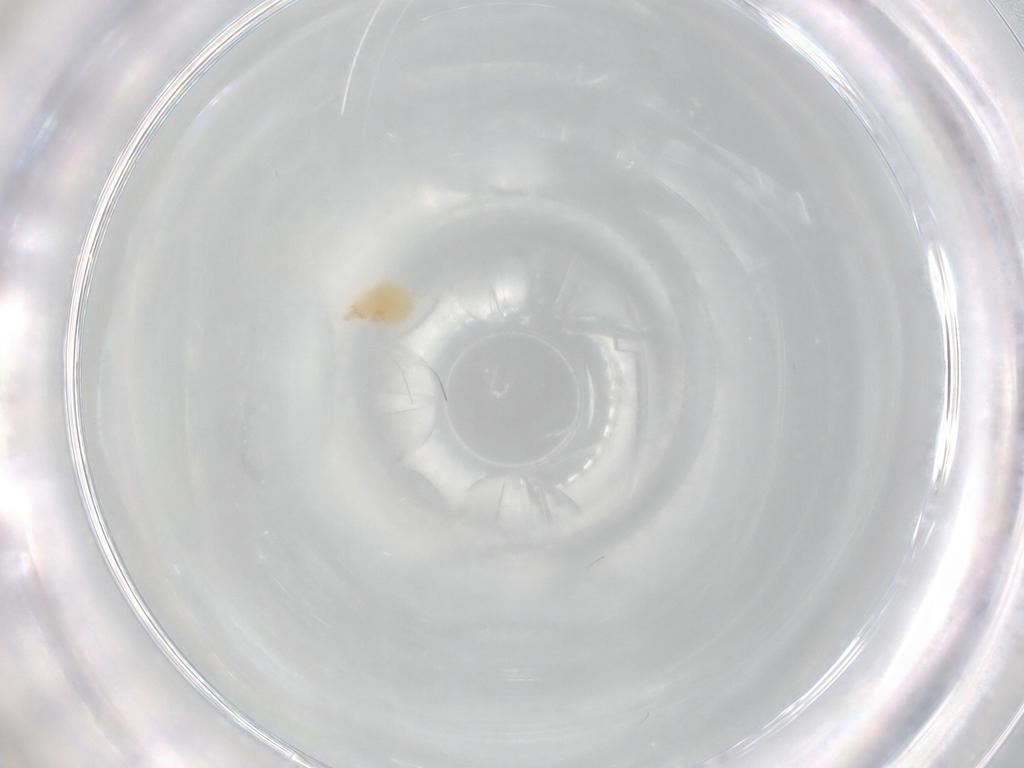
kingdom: Animalia
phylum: Arthropoda
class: Arachnida
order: Trombidiformes
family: Eupodidae
